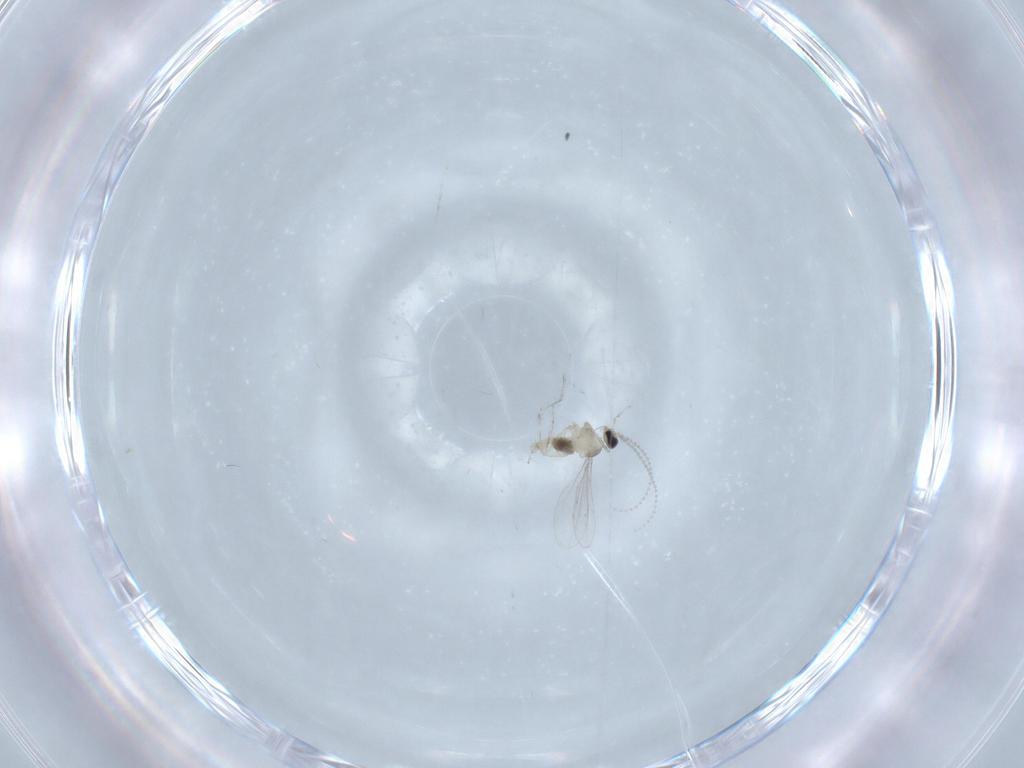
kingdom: Animalia
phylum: Arthropoda
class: Insecta
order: Diptera
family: Cecidomyiidae
